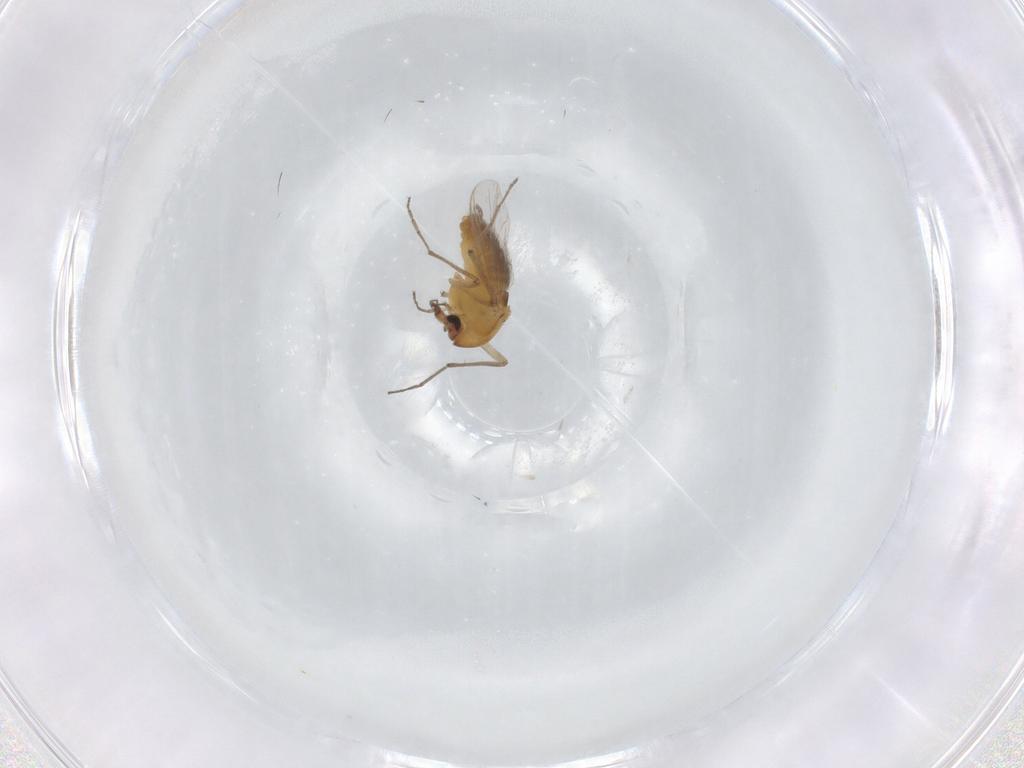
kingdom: Animalia
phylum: Arthropoda
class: Insecta
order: Diptera
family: Chironomidae
